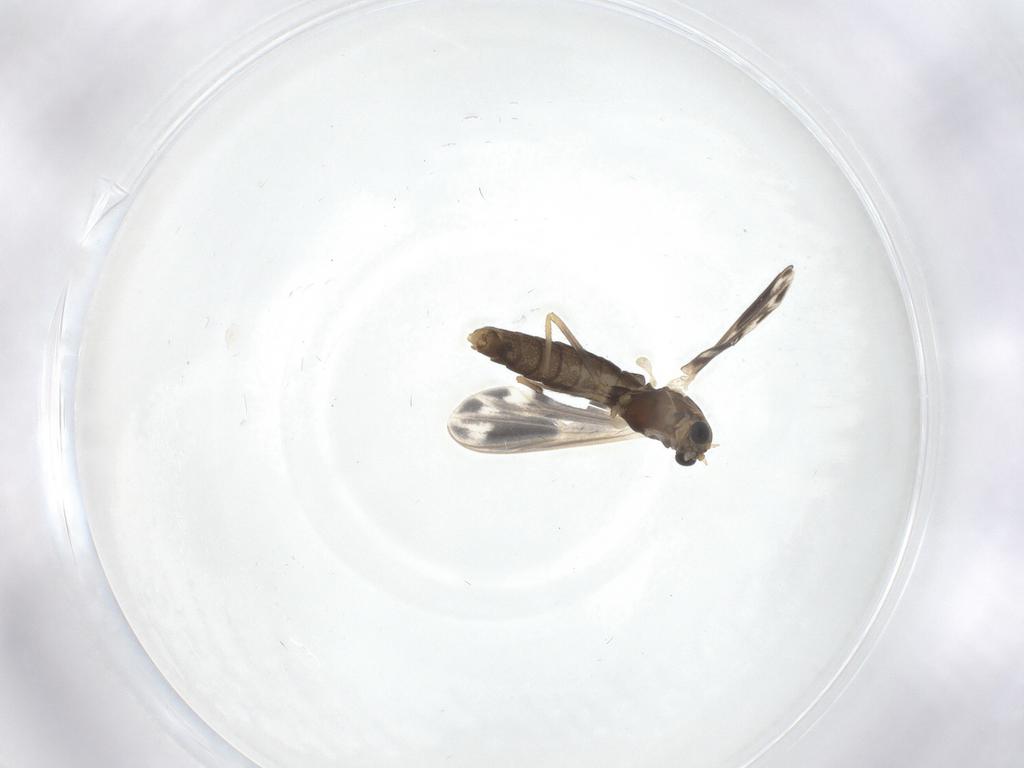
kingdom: Animalia
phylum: Arthropoda
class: Insecta
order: Diptera
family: Chironomidae
